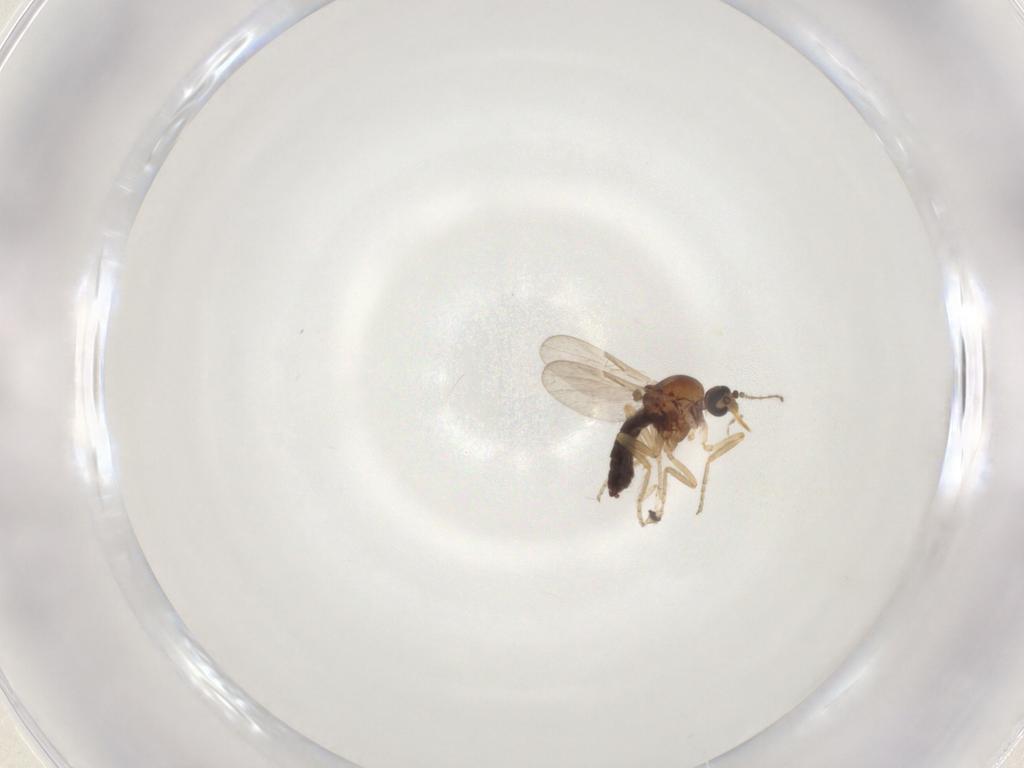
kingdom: Animalia
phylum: Arthropoda
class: Insecta
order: Diptera
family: Ceratopogonidae
